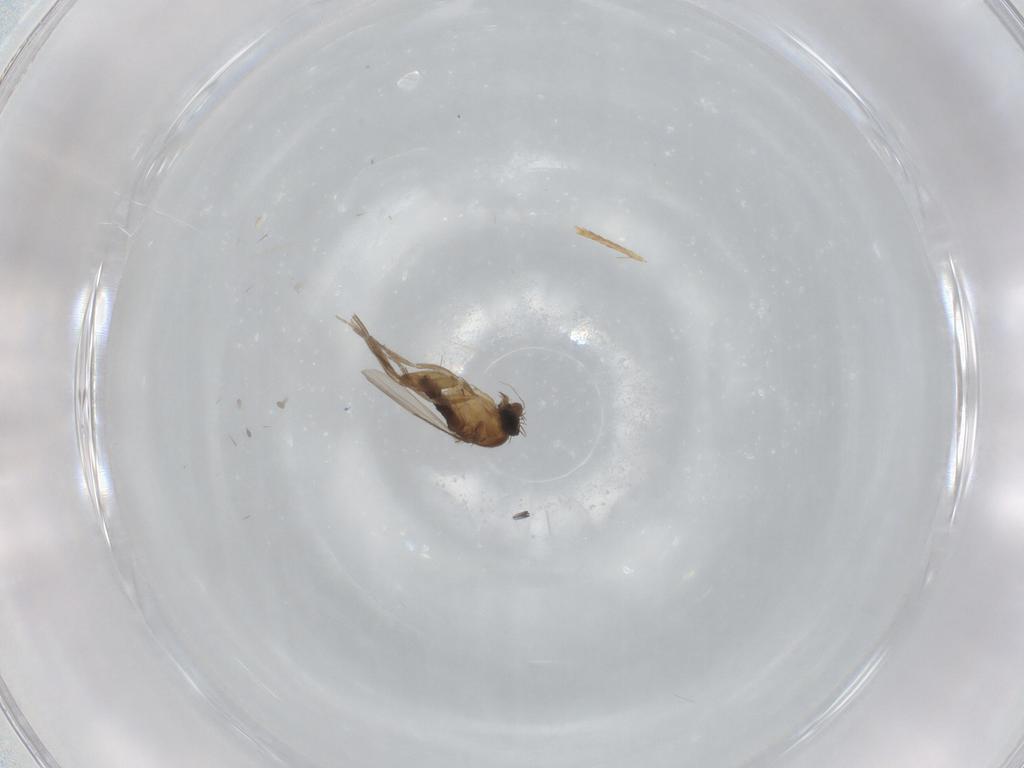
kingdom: Animalia
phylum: Arthropoda
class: Insecta
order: Diptera
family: Phoridae
